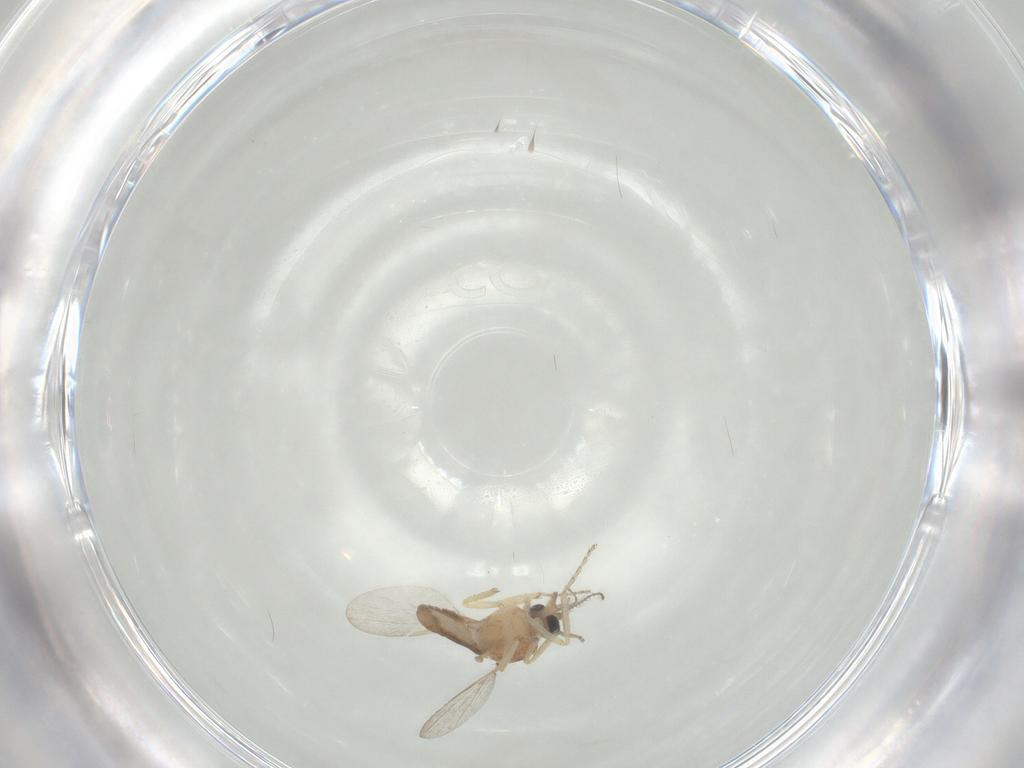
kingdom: Animalia
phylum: Arthropoda
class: Insecta
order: Diptera
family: Ceratopogonidae
